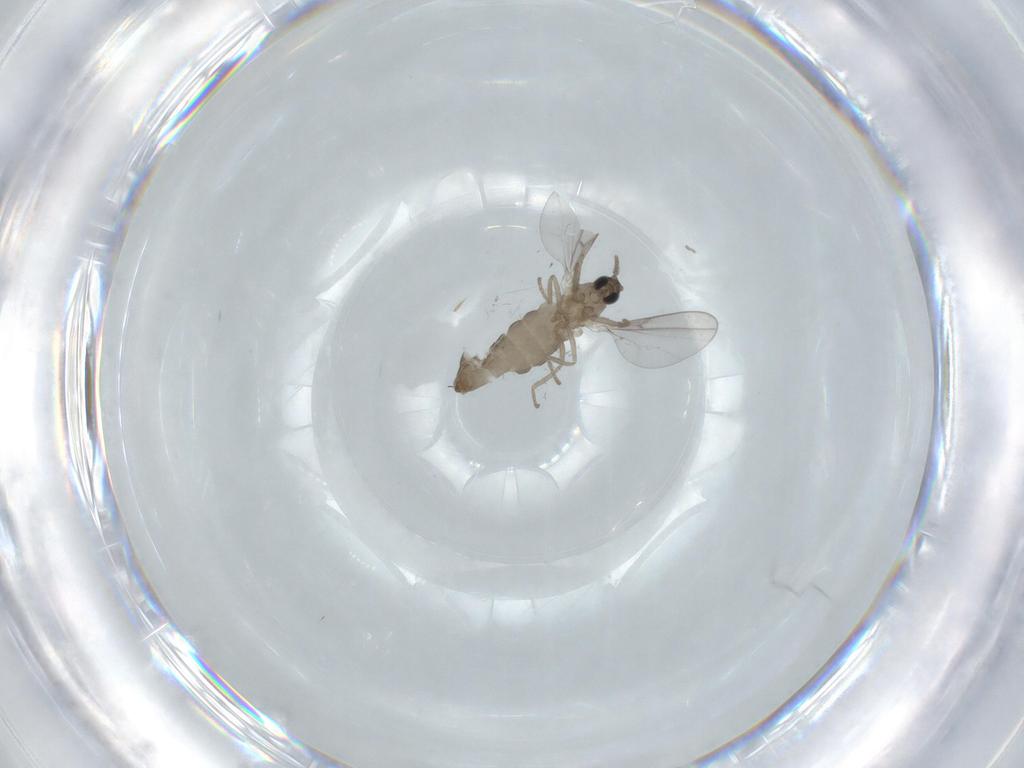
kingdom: Animalia
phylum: Arthropoda
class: Insecta
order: Diptera
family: Cecidomyiidae
